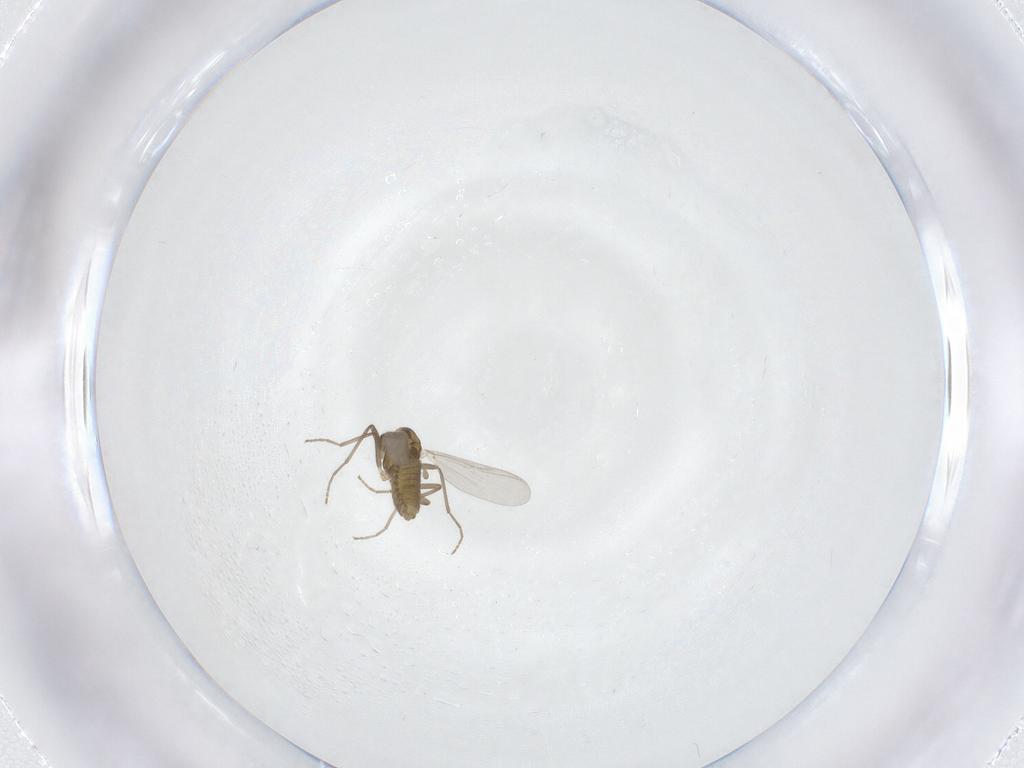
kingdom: Animalia
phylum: Arthropoda
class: Insecta
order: Diptera
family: Chironomidae
